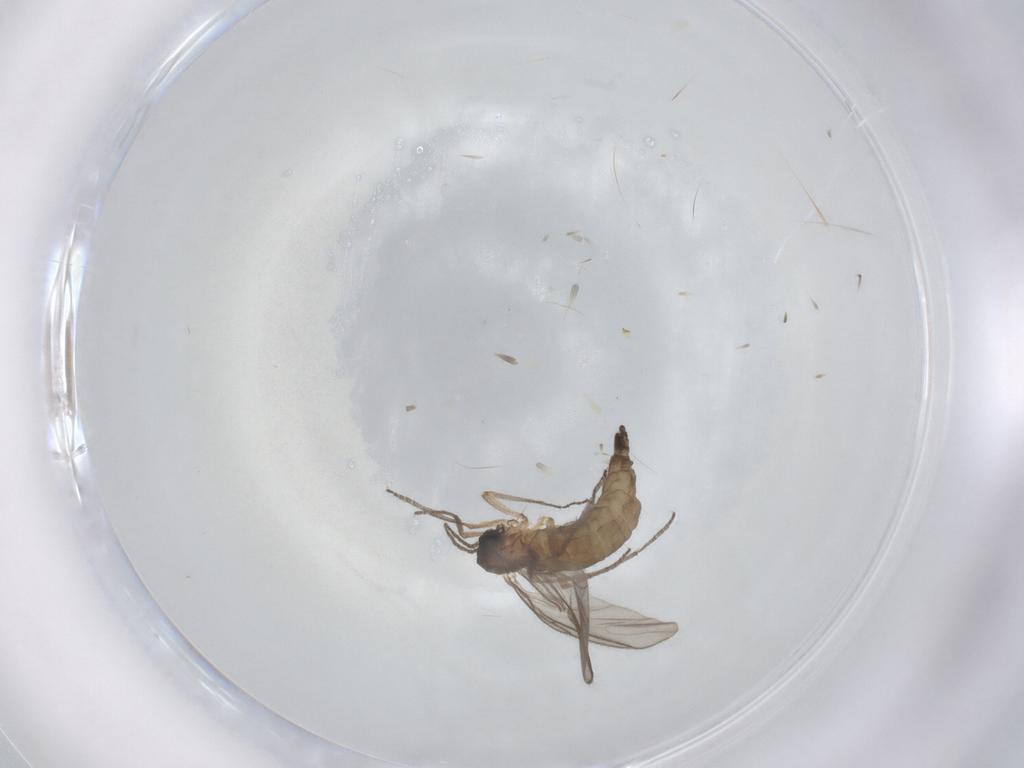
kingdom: Animalia
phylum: Arthropoda
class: Insecta
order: Diptera
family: Sciaridae
